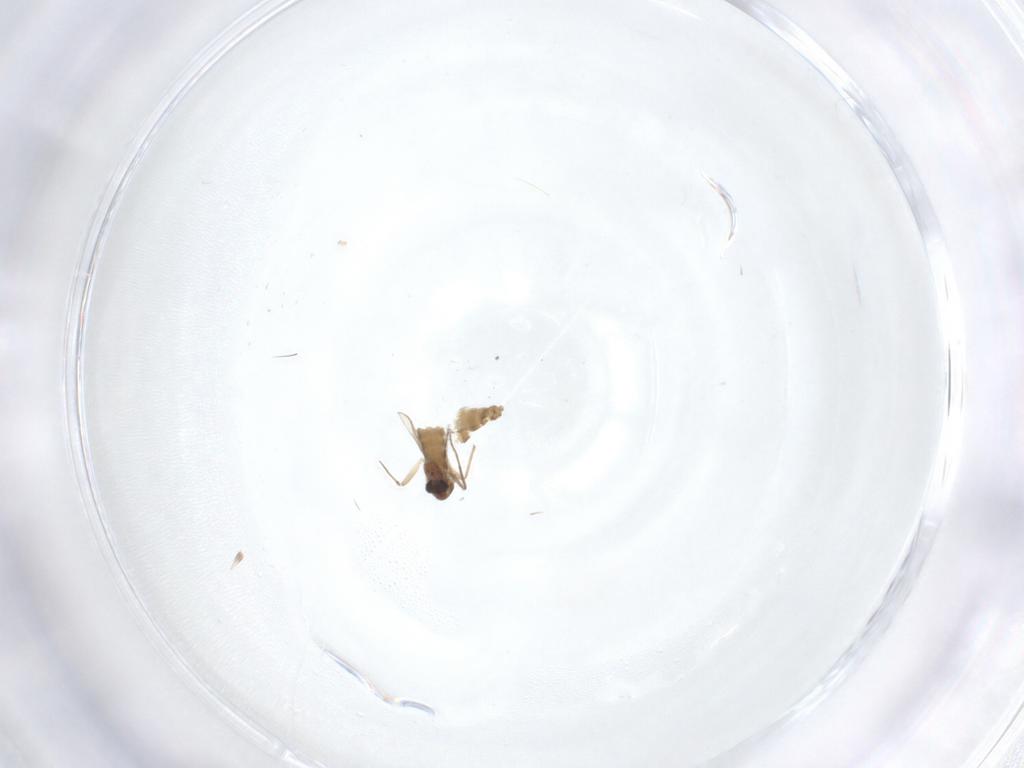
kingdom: Animalia
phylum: Arthropoda
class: Insecta
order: Diptera
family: Chironomidae
